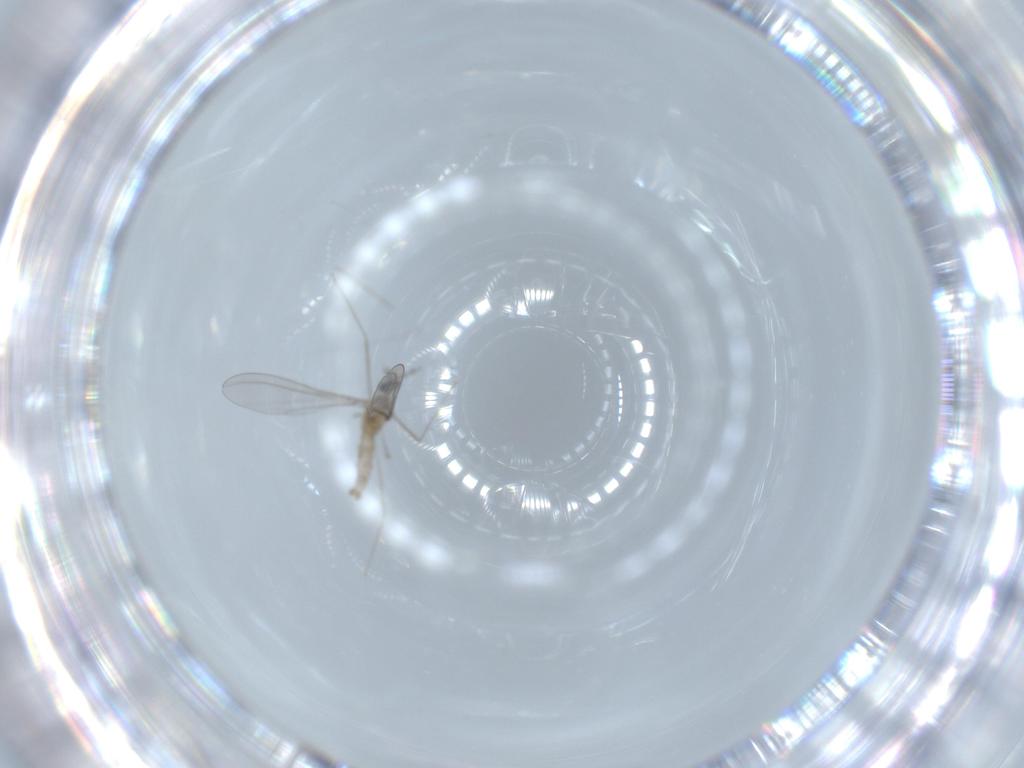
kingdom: Animalia
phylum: Arthropoda
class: Insecta
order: Diptera
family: Cecidomyiidae
